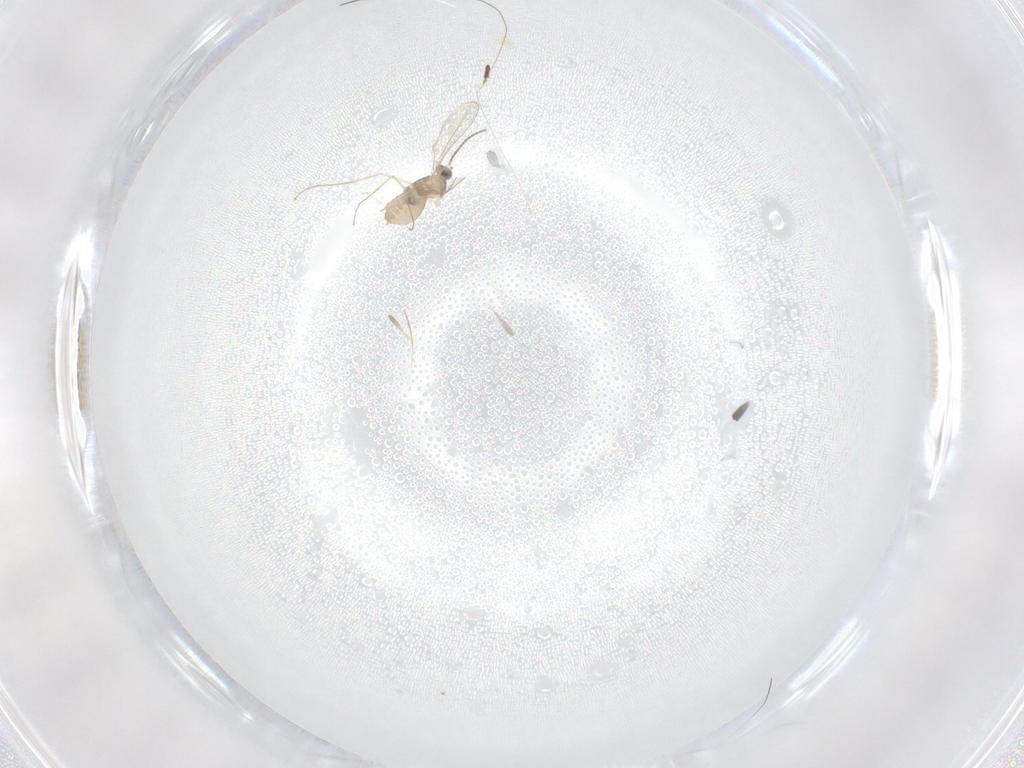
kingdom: Animalia
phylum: Arthropoda
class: Insecta
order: Diptera
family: Cecidomyiidae
